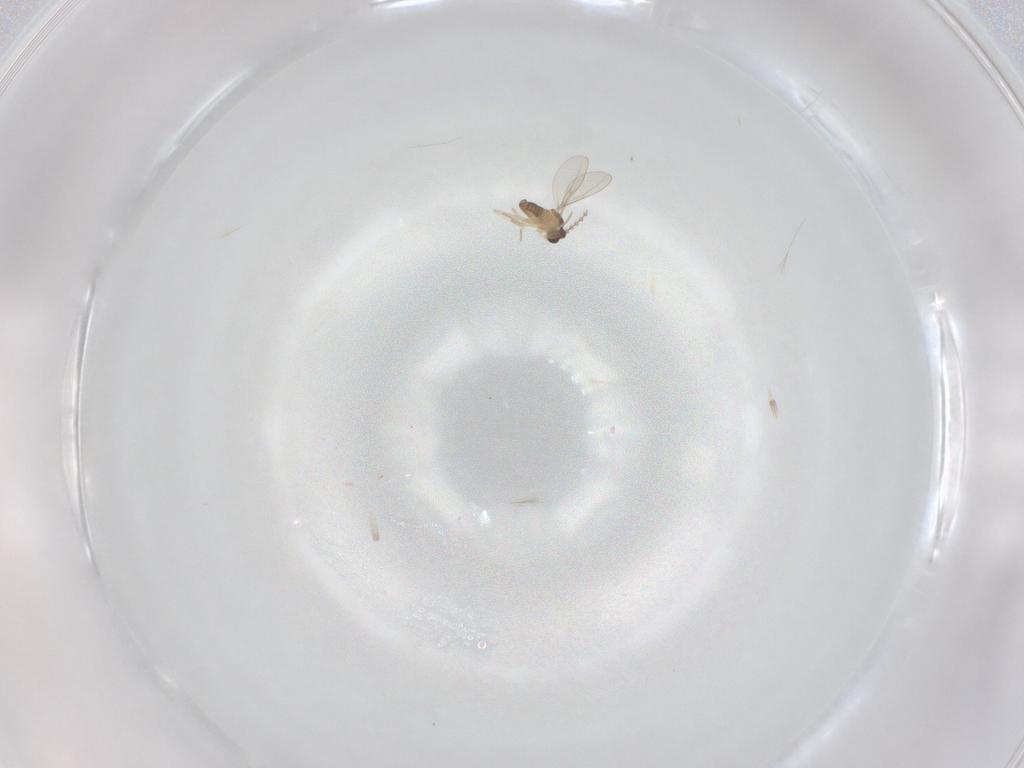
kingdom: Animalia
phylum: Arthropoda
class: Insecta
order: Diptera
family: Cecidomyiidae
